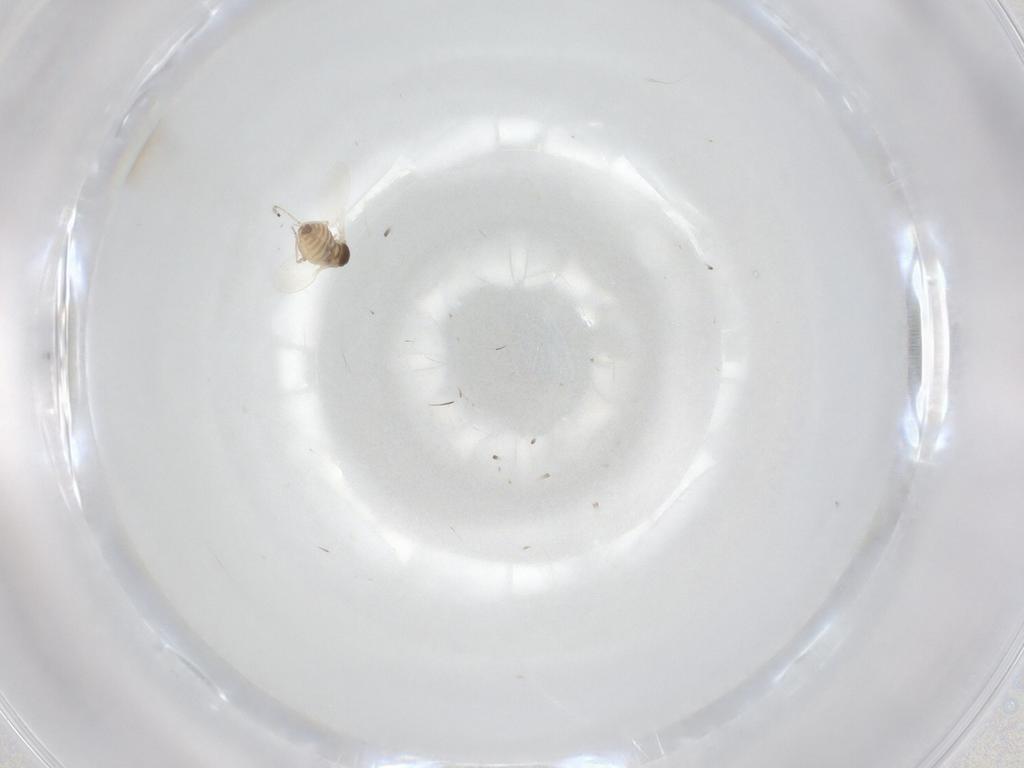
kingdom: Animalia
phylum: Arthropoda
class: Insecta
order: Diptera
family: Cecidomyiidae
